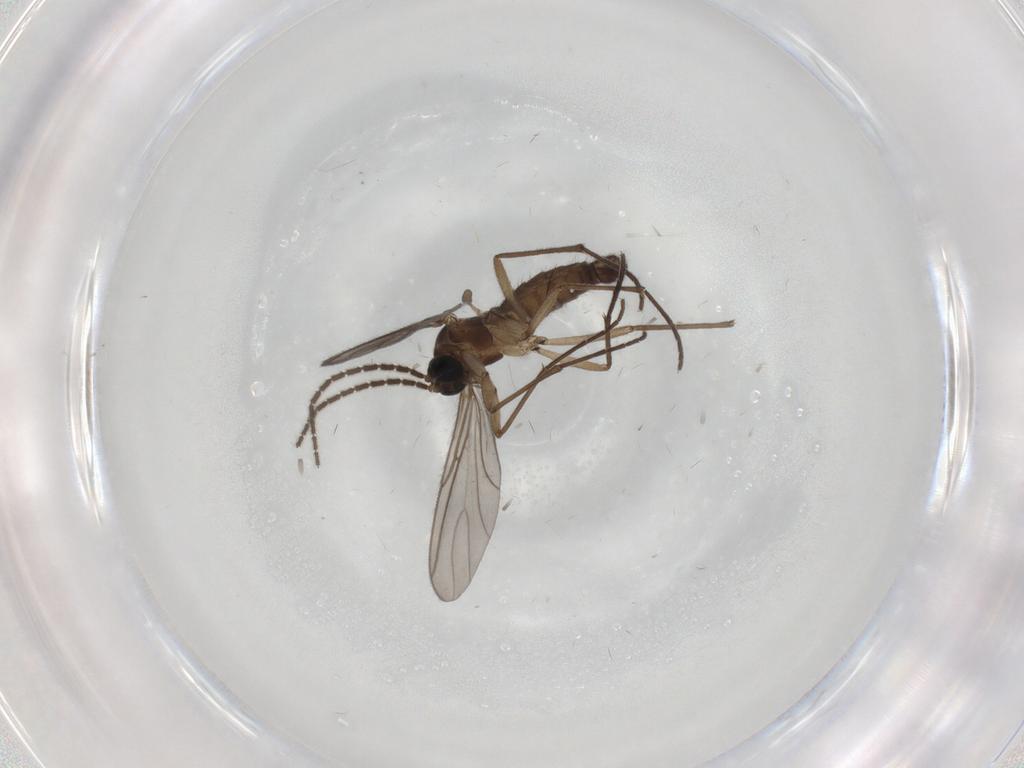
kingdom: Animalia
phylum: Arthropoda
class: Insecta
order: Diptera
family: Sciaridae
